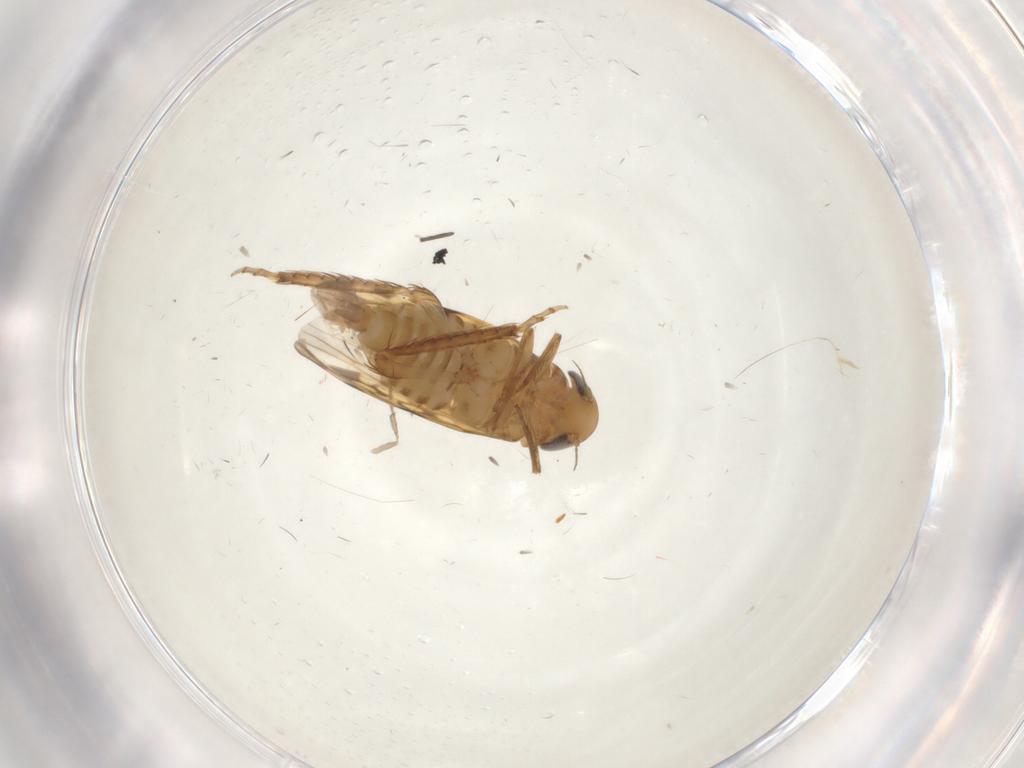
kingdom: Animalia
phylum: Arthropoda
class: Insecta
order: Hemiptera
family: Cicadellidae
